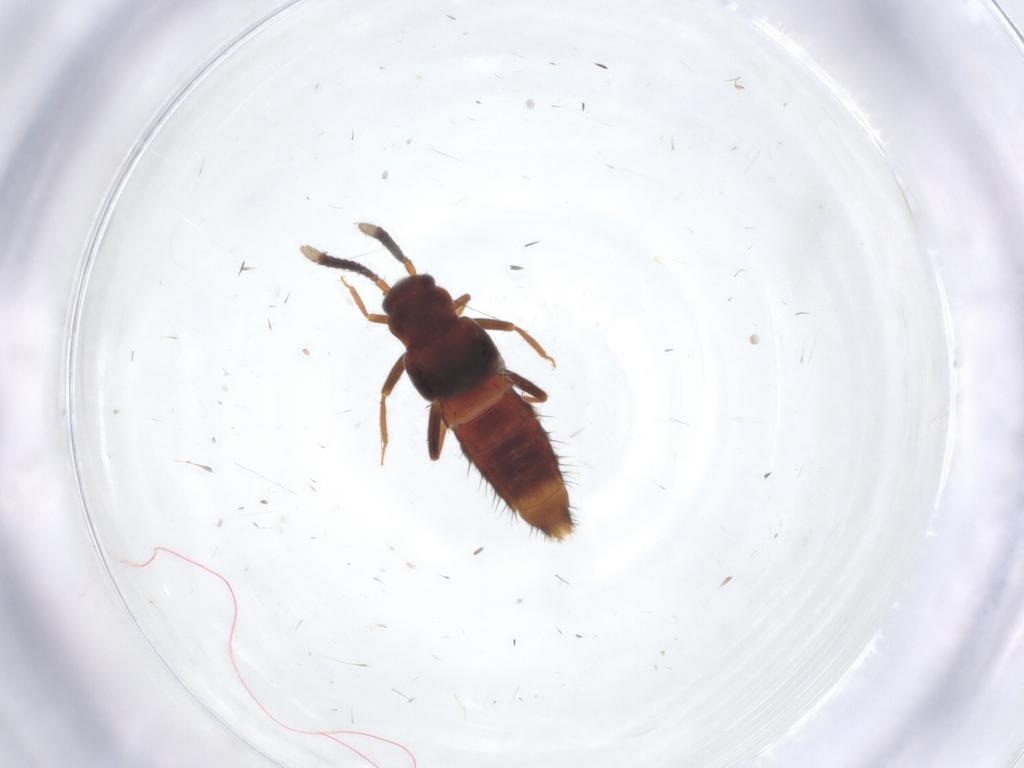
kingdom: Animalia
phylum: Arthropoda
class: Insecta
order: Coleoptera
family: Staphylinidae
